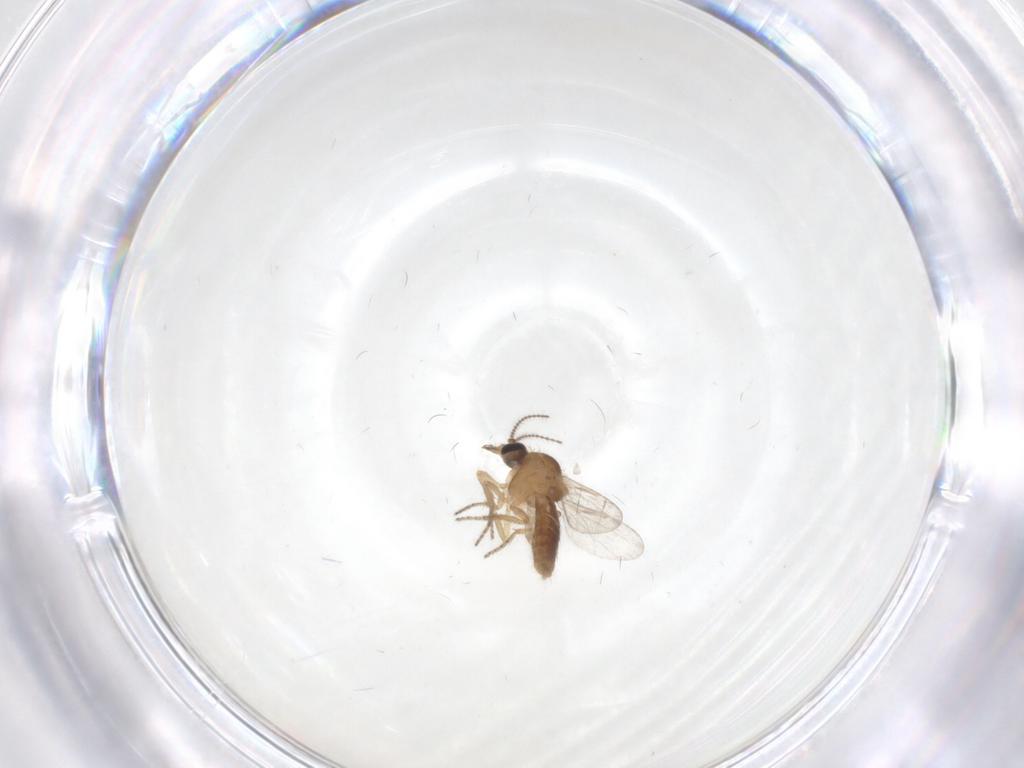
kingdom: Animalia
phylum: Arthropoda
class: Insecta
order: Diptera
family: Ceratopogonidae
